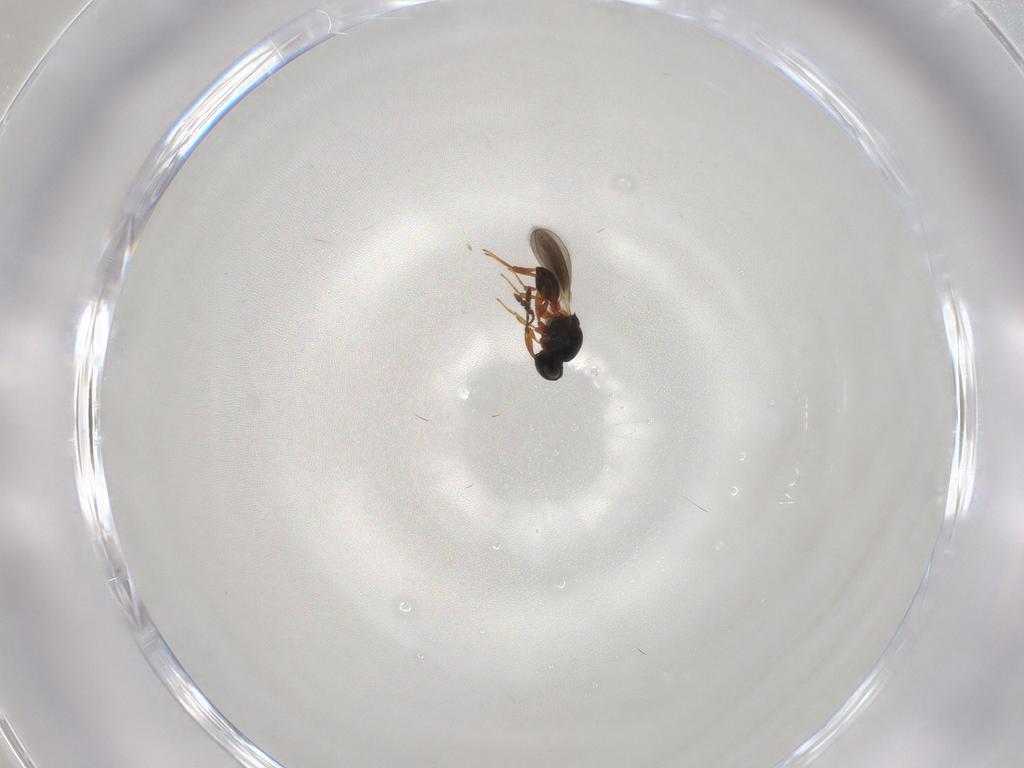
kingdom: Animalia
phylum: Arthropoda
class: Insecta
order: Hymenoptera
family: Platygastridae
